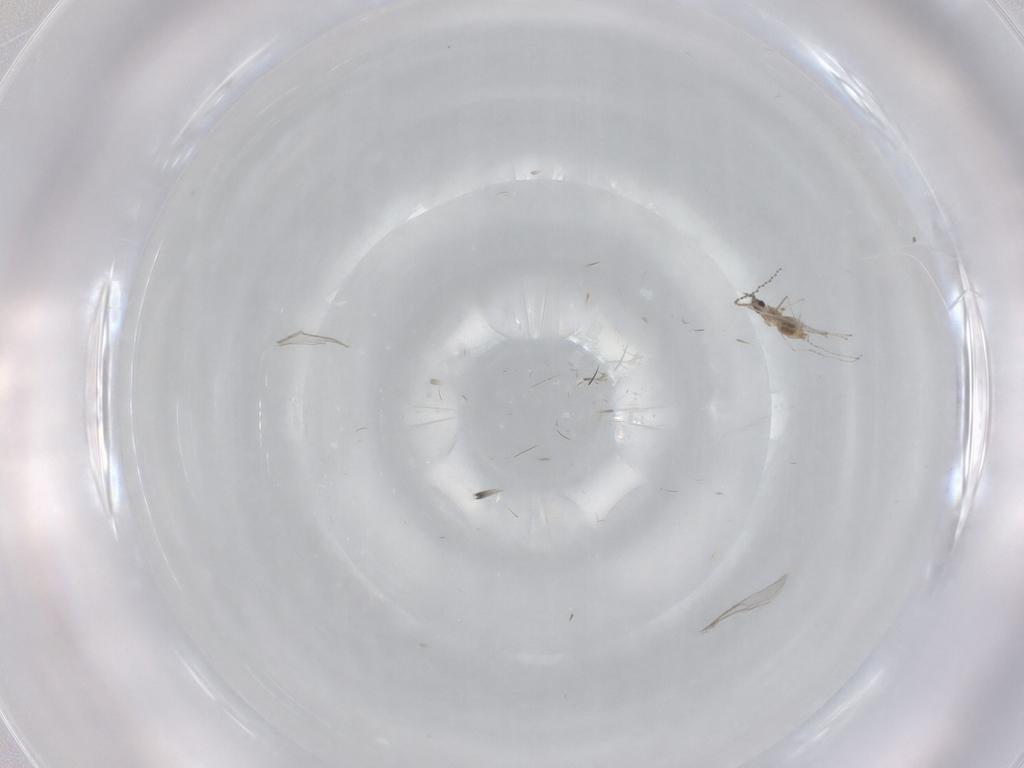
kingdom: Animalia
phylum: Arthropoda
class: Insecta
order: Diptera
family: Cecidomyiidae
